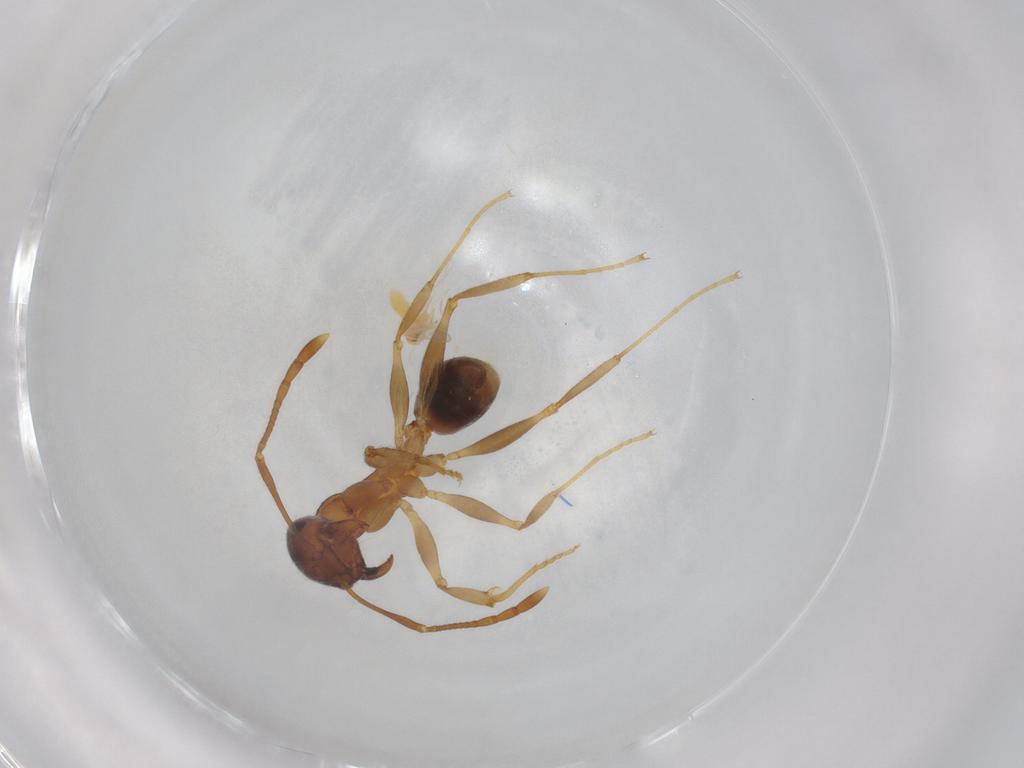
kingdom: Animalia
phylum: Arthropoda
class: Insecta
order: Hymenoptera
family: Formicidae
